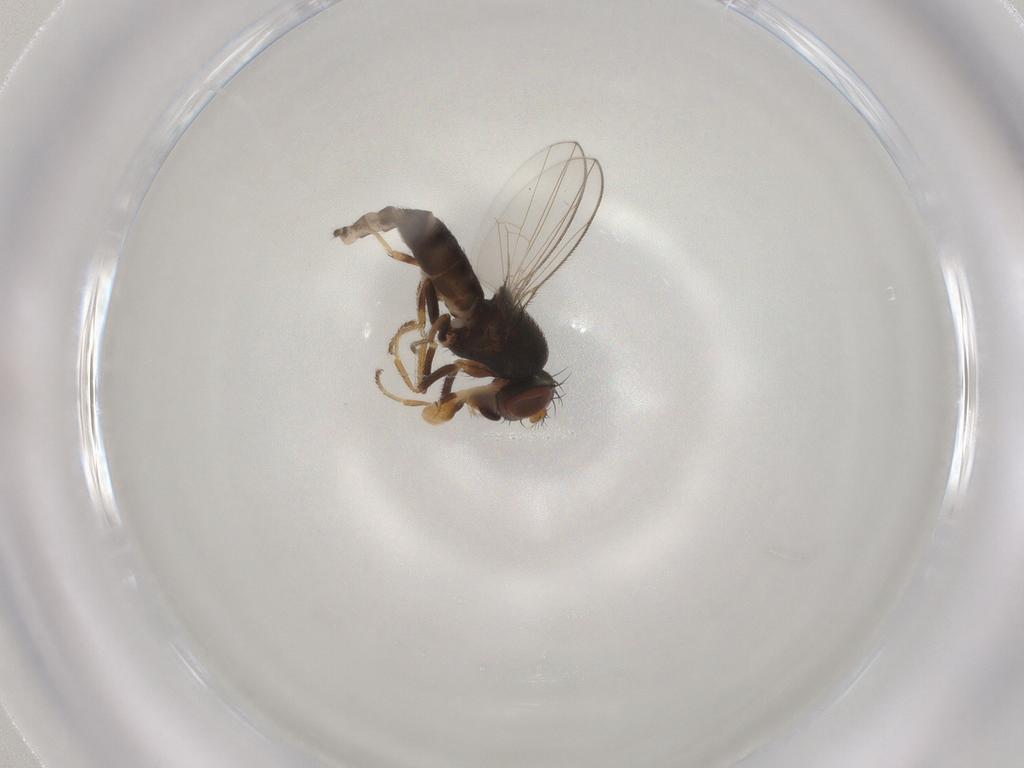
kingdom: Animalia
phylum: Arthropoda
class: Insecta
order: Diptera
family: Ephydridae
